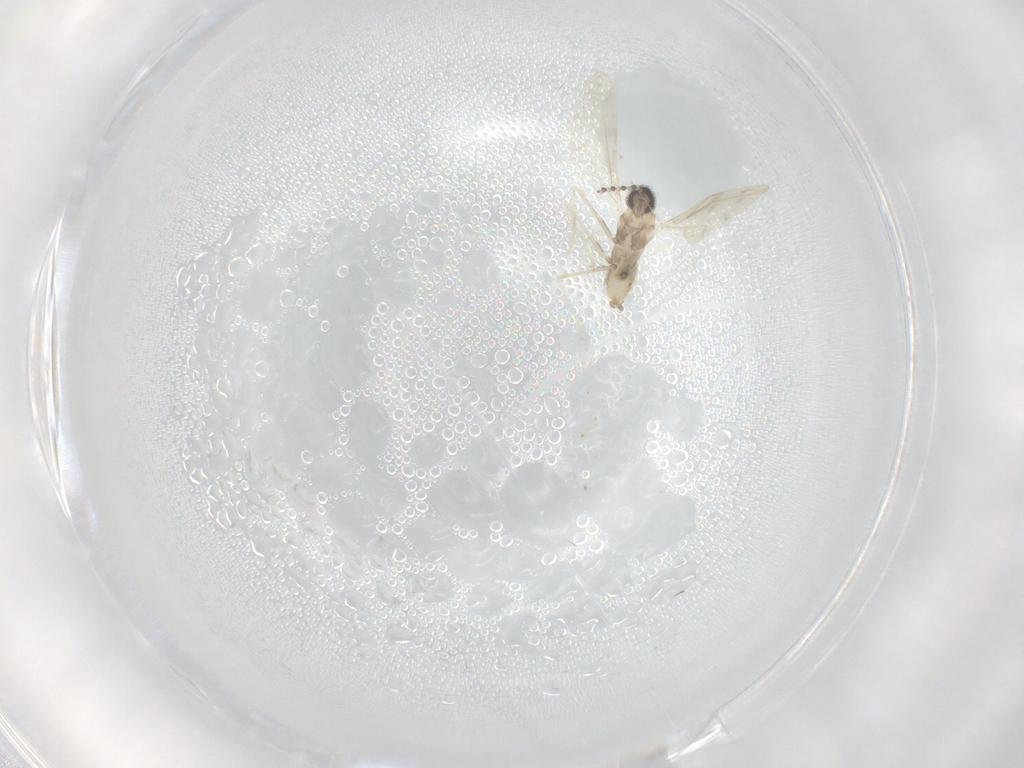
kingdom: Animalia
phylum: Arthropoda
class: Insecta
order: Diptera
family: Cecidomyiidae
